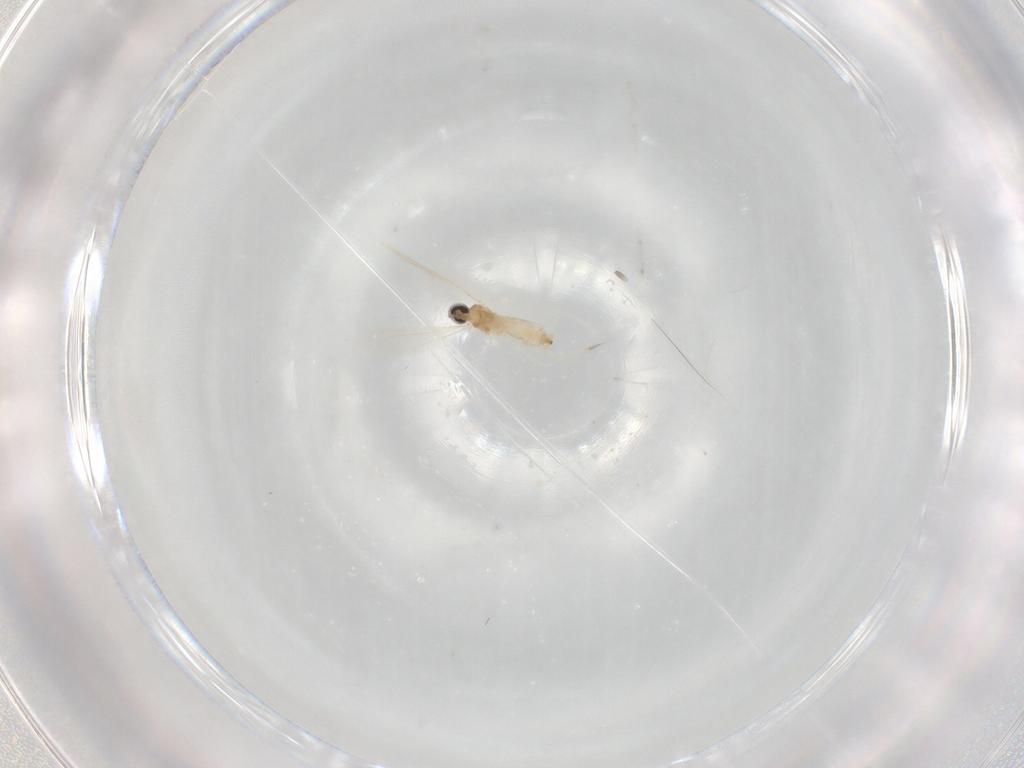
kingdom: Animalia
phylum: Arthropoda
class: Insecta
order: Diptera
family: Cecidomyiidae
